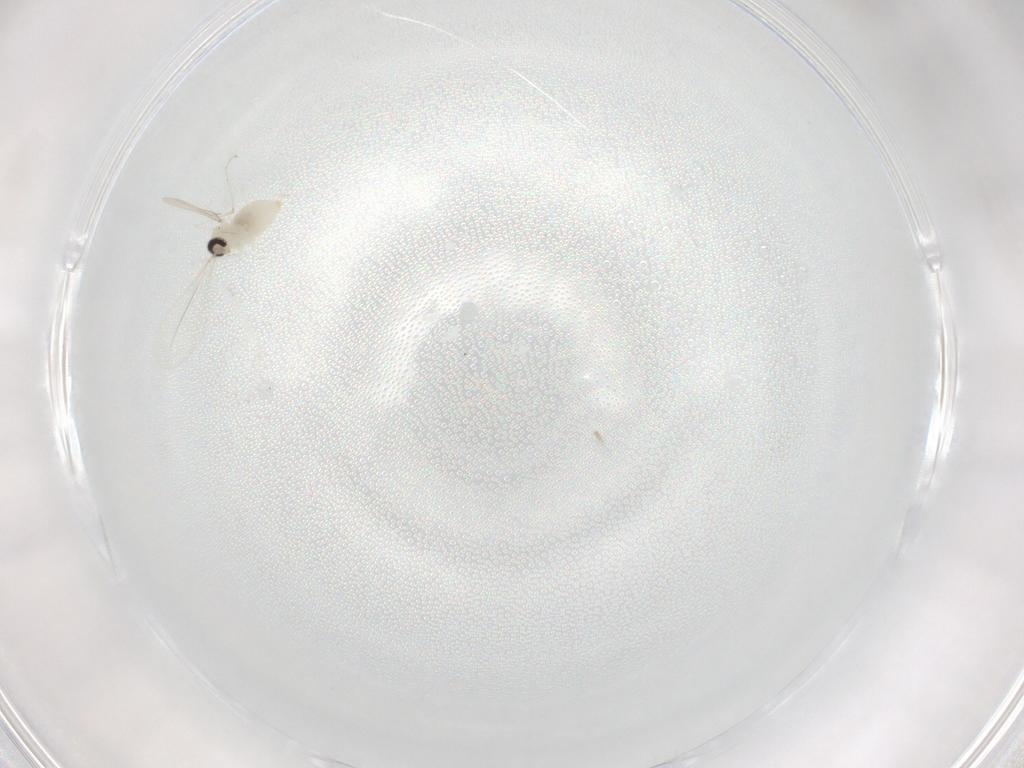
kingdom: Animalia
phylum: Arthropoda
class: Insecta
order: Diptera
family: Cecidomyiidae
